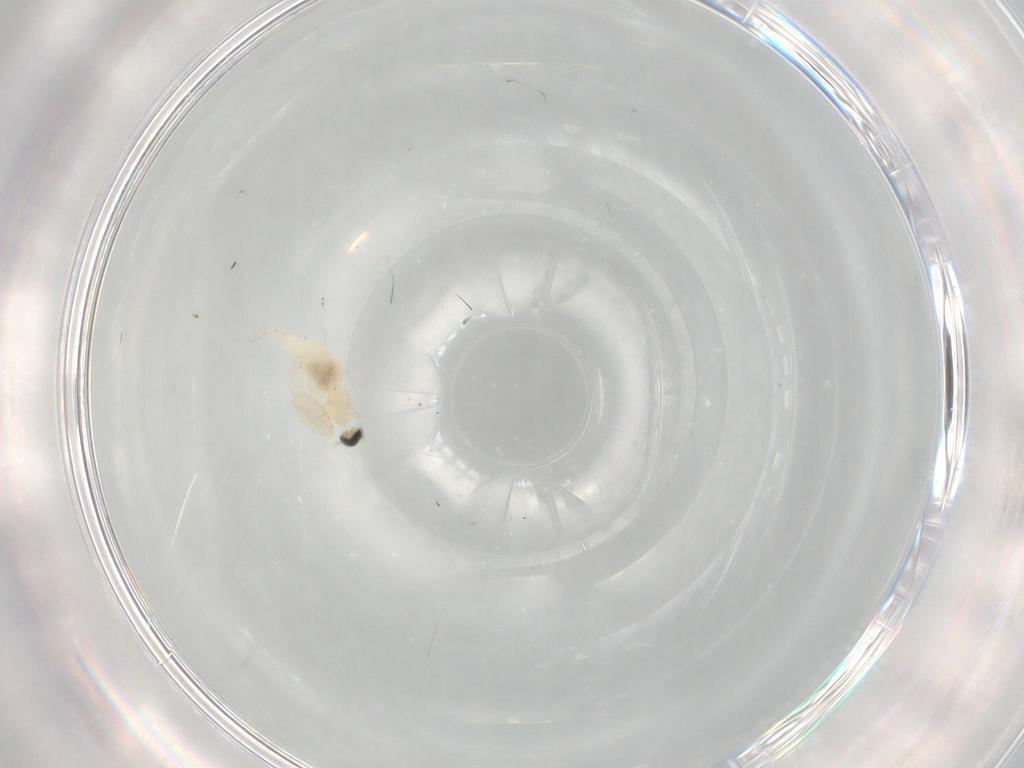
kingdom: Animalia
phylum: Arthropoda
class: Insecta
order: Diptera
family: Cecidomyiidae
